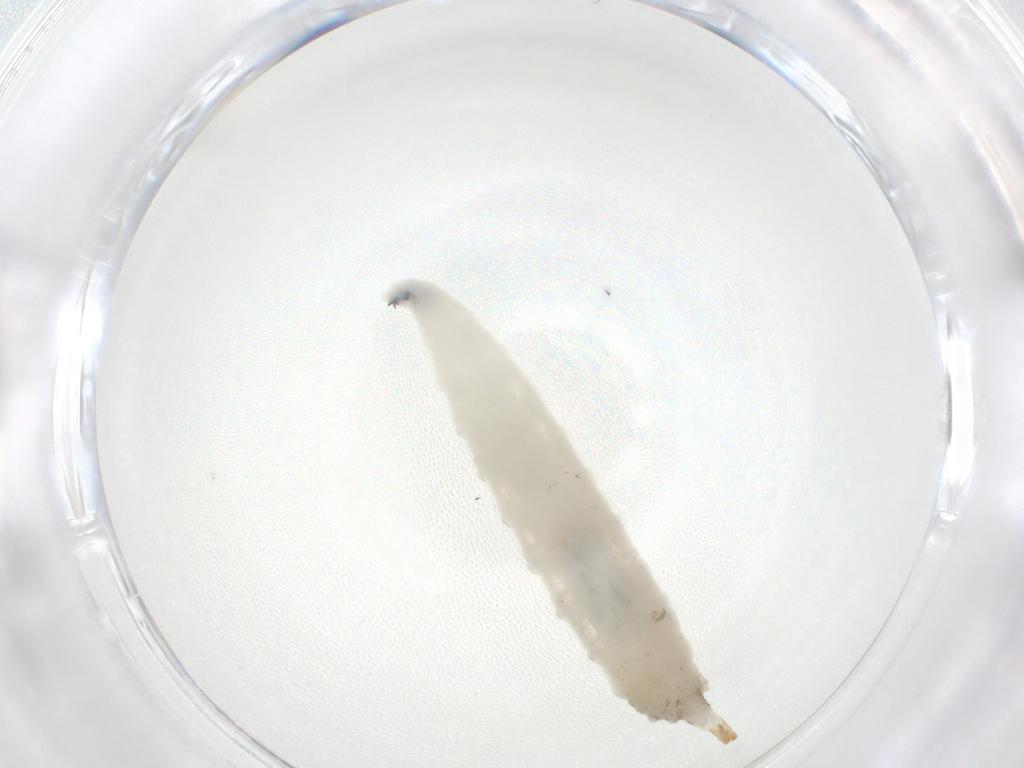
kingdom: Animalia
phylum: Arthropoda
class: Insecta
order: Diptera
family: Drosophilidae
